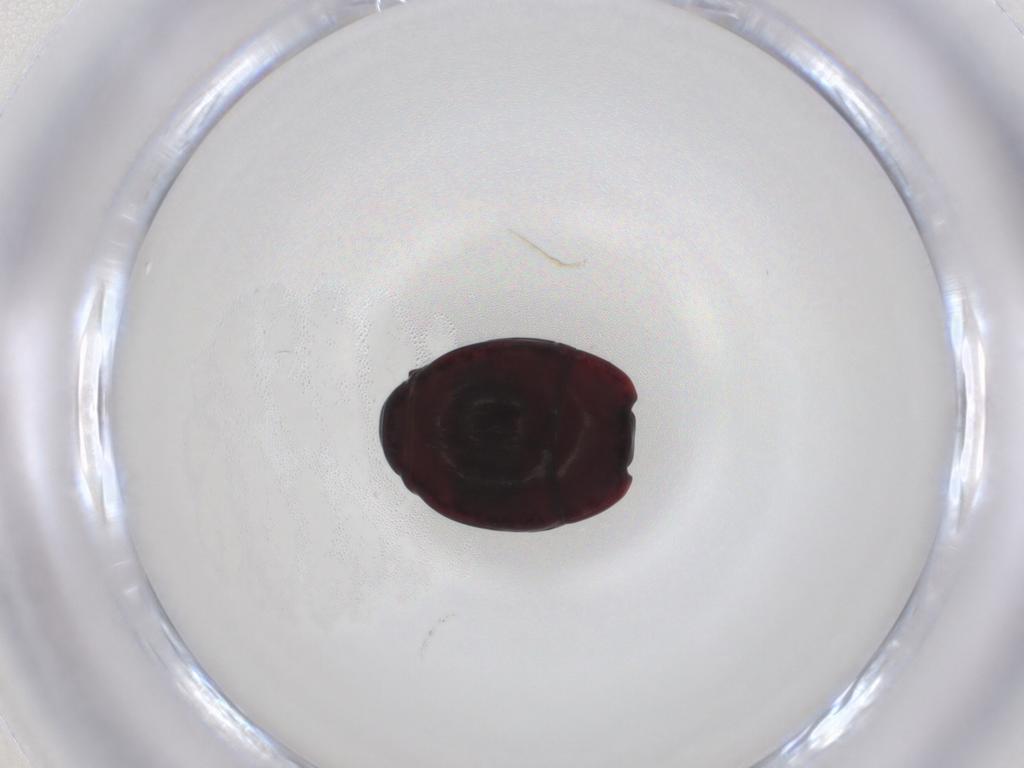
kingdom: Animalia
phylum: Arthropoda
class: Insecta
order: Coleoptera
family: Histeridae
